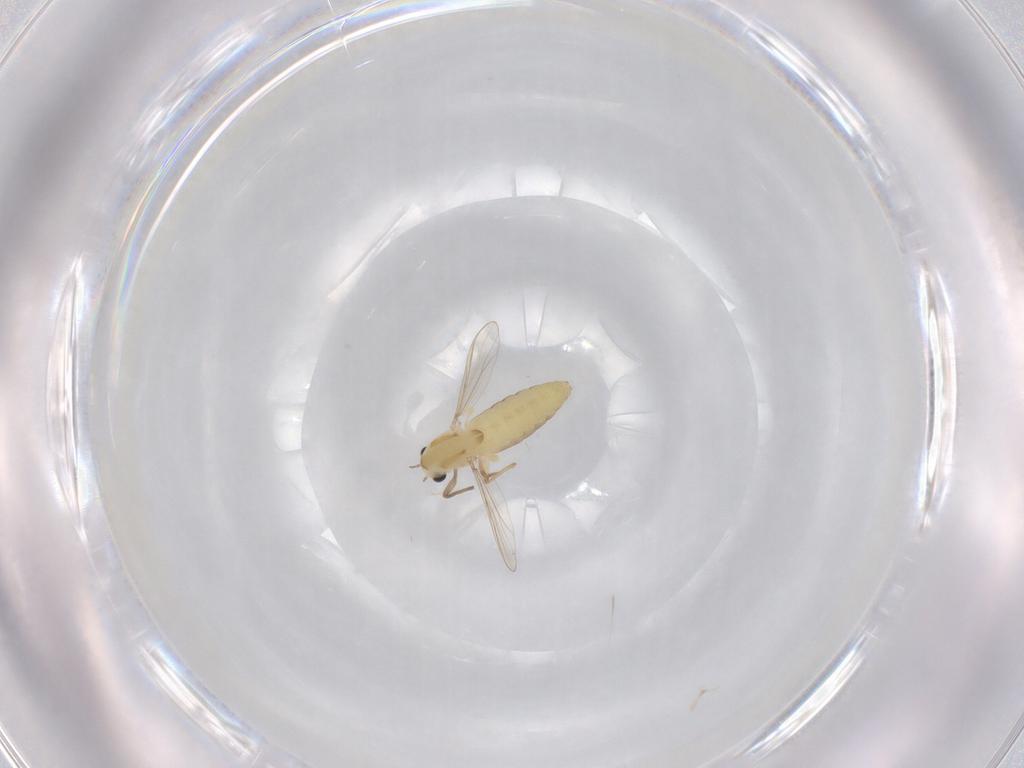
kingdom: Animalia
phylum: Arthropoda
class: Insecta
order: Diptera
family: Chironomidae
